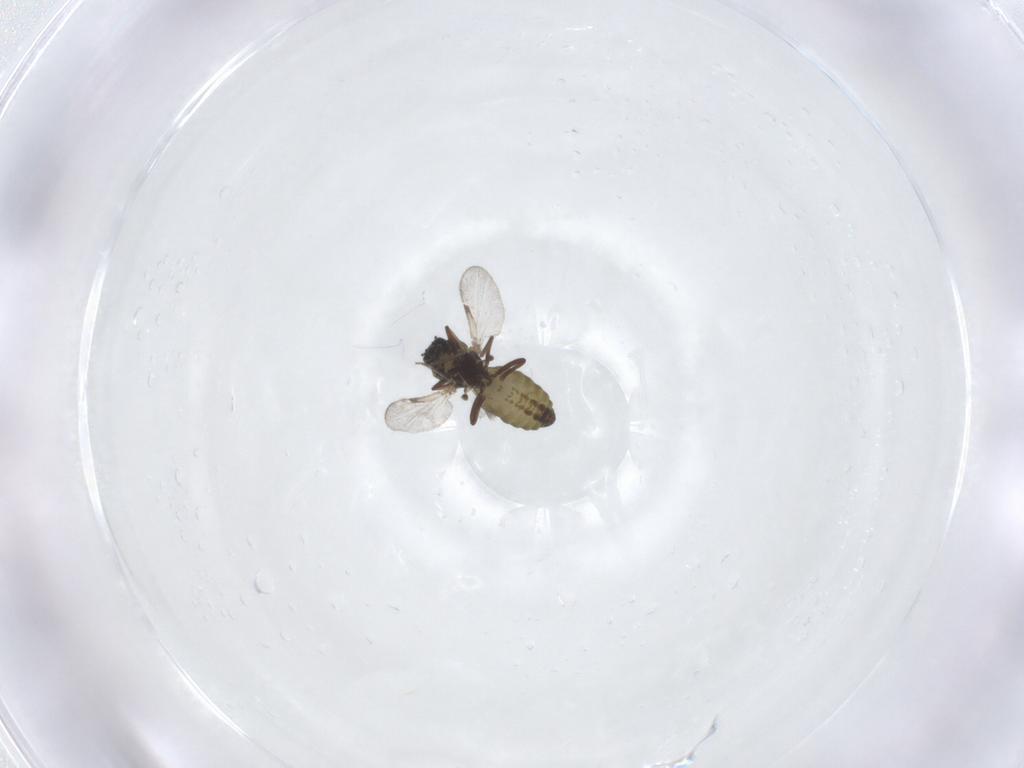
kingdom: Animalia
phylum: Arthropoda
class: Insecta
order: Diptera
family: Ceratopogonidae
